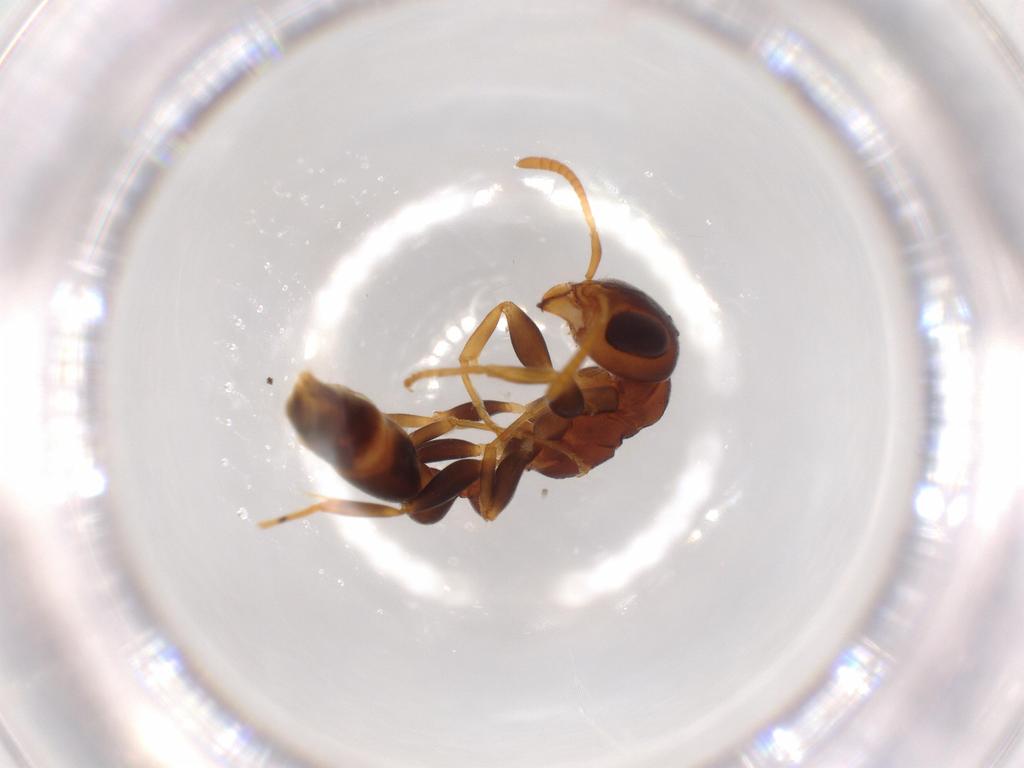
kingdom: Animalia
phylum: Arthropoda
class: Insecta
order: Hymenoptera
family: Formicidae
